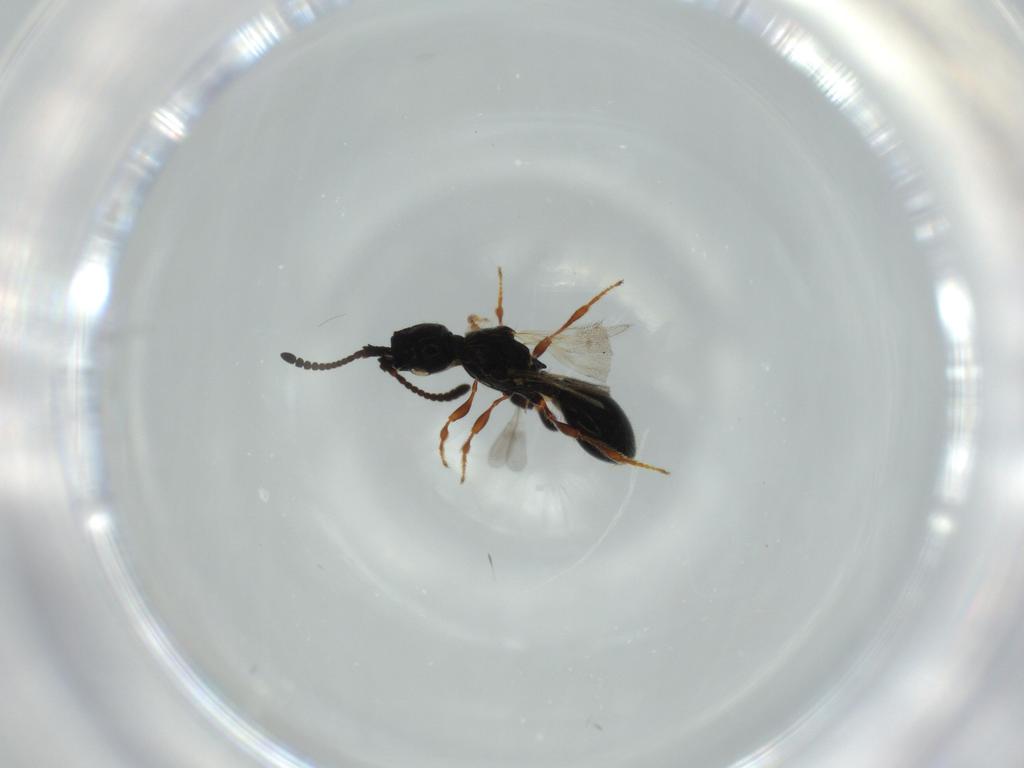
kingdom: Animalia
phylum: Arthropoda
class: Insecta
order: Hymenoptera
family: Diapriidae
